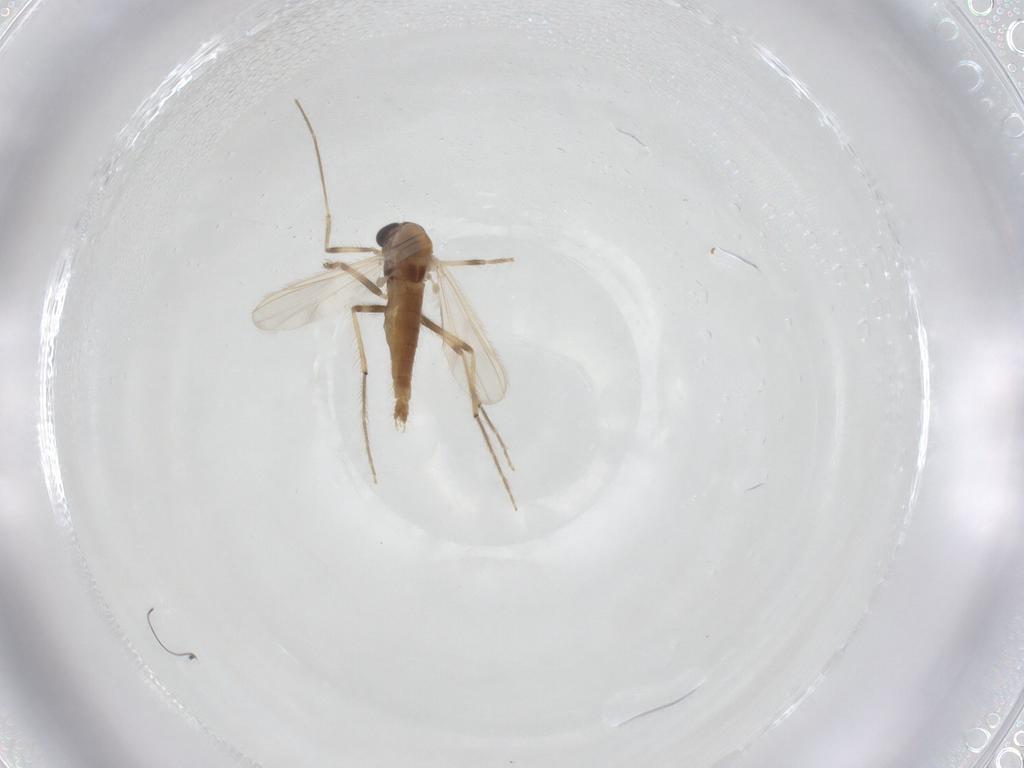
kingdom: Animalia
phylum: Arthropoda
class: Insecta
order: Diptera
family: Chironomidae
